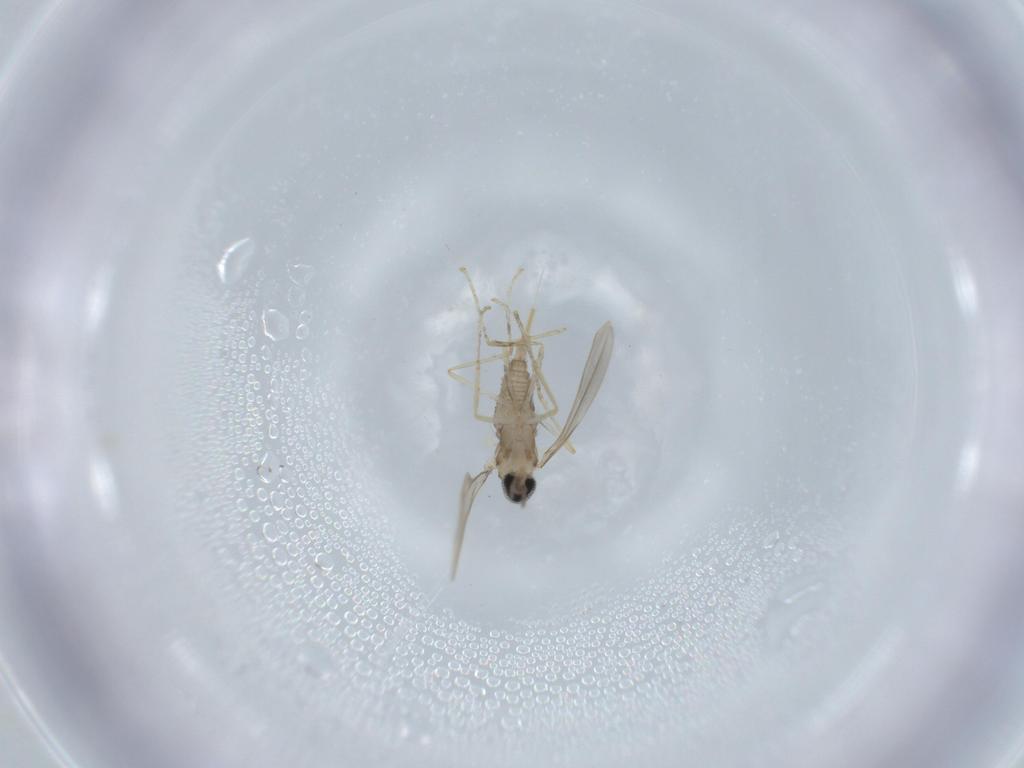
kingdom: Animalia
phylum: Arthropoda
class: Insecta
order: Diptera
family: Cecidomyiidae
